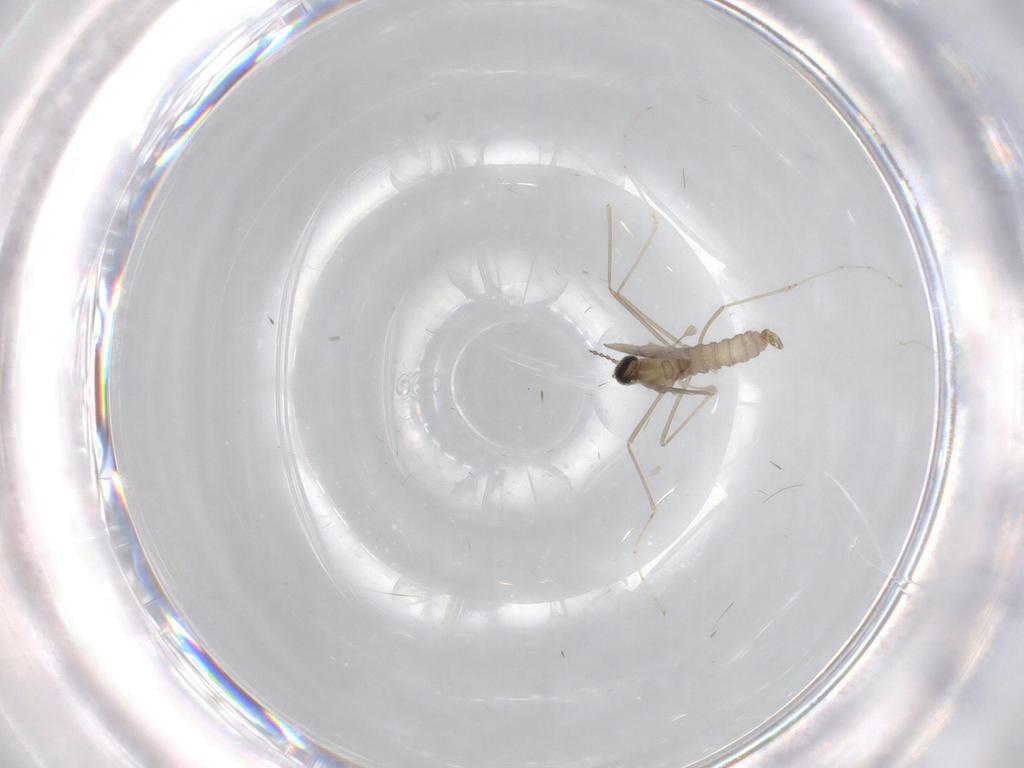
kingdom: Animalia
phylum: Arthropoda
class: Insecta
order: Diptera
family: Cecidomyiidae
